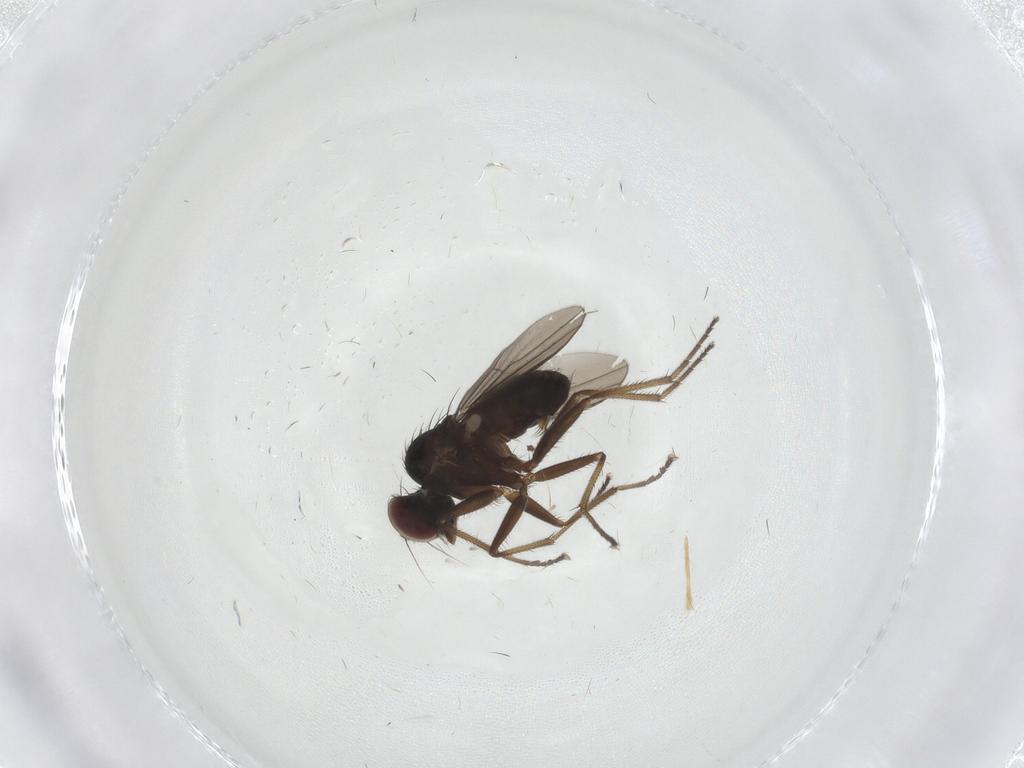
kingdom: Animalia
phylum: Arthropoda
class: Insecta
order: Diptera
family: Dolichopodidae
